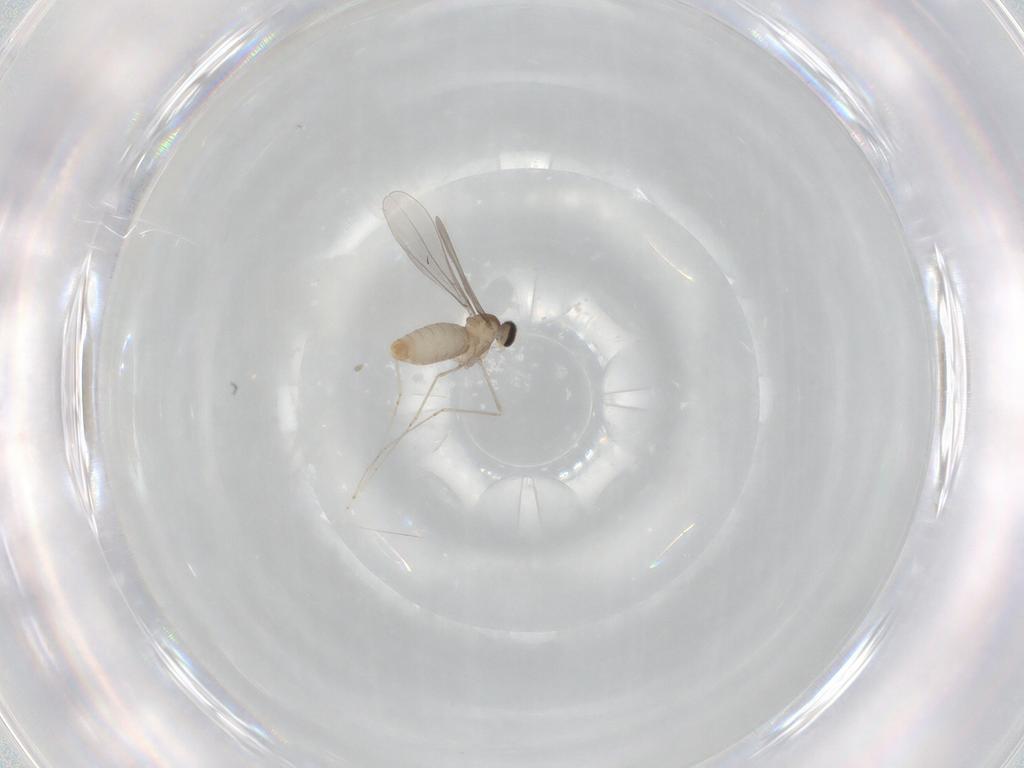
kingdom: Animalia
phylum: Arthropoda
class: Insecta
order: Diptera
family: Cecidomyiidae
